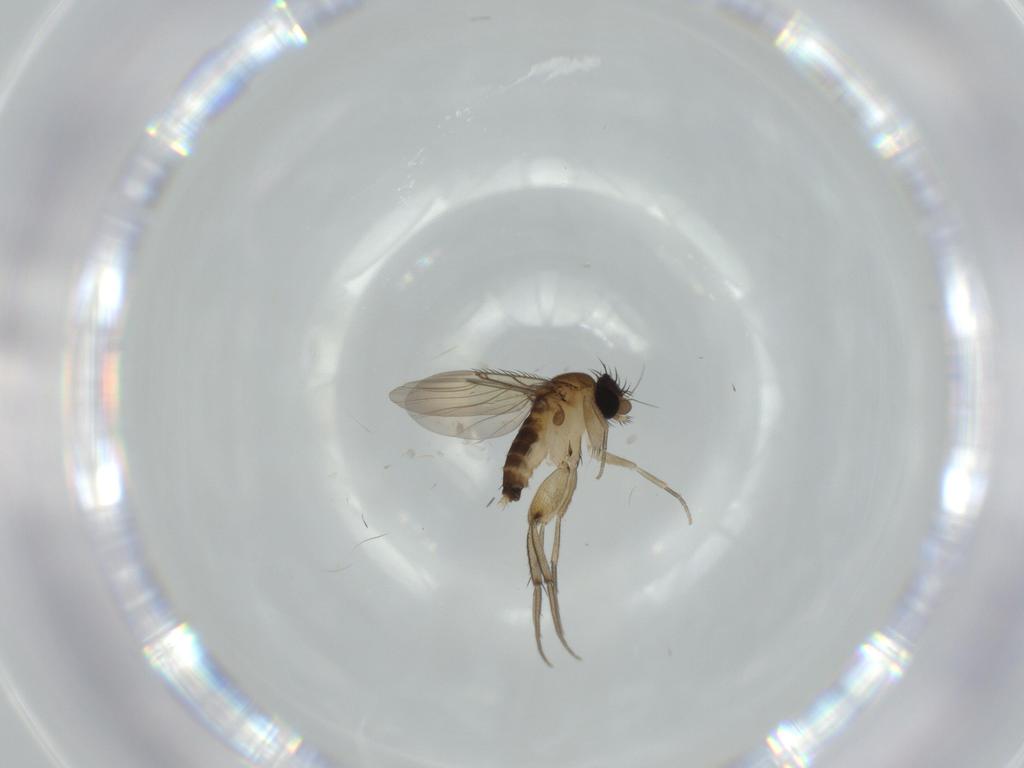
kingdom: Animalia
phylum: Arthropoda
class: Insecta
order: Diptera
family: Phoridae
